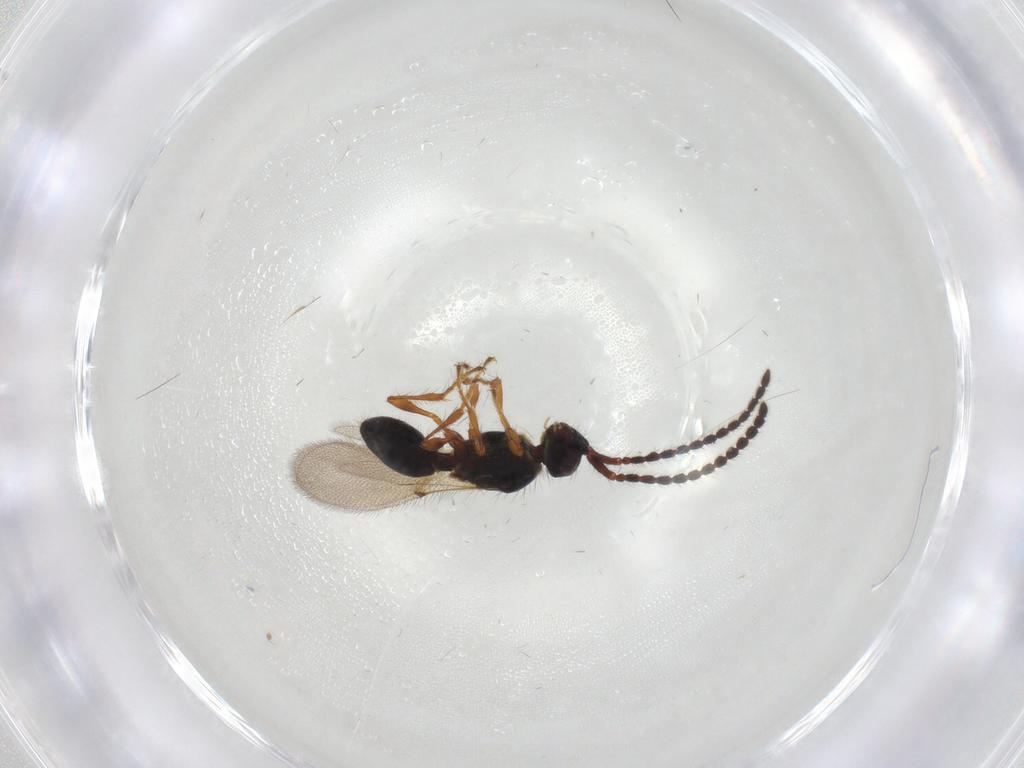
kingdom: Animalia
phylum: Arthropoda
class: Insecta
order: Hymenoptera
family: Diapriidae
